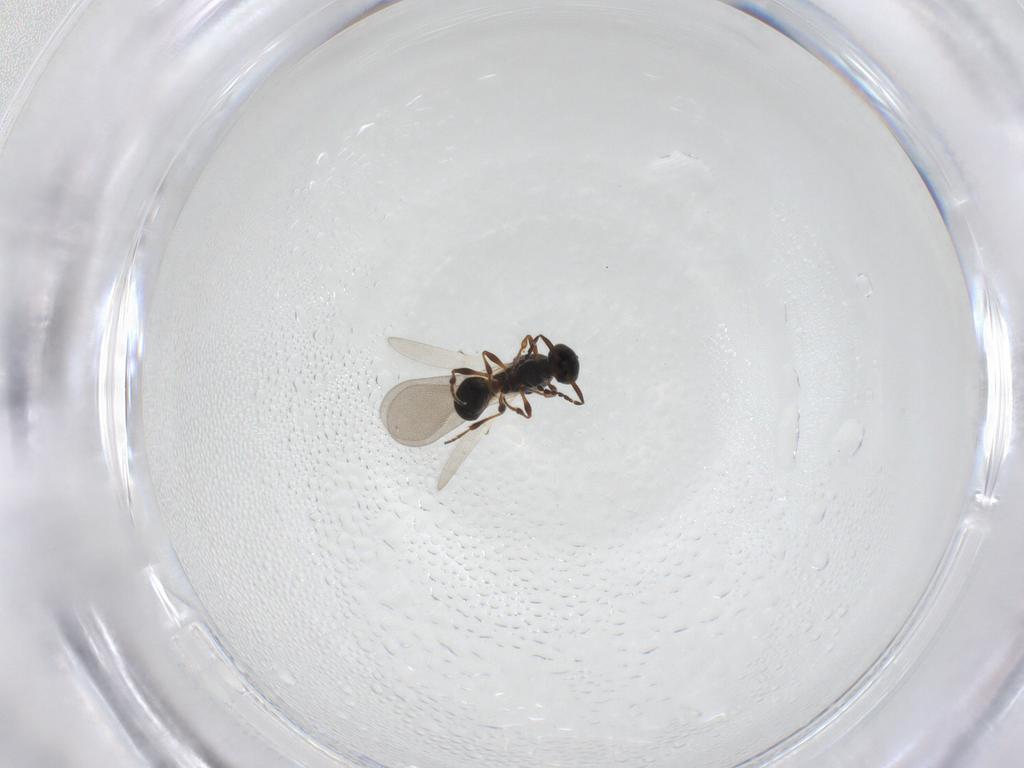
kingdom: Animalia
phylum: Arthropoda
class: Insecta
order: Hymenoptera
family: Platygastridae
